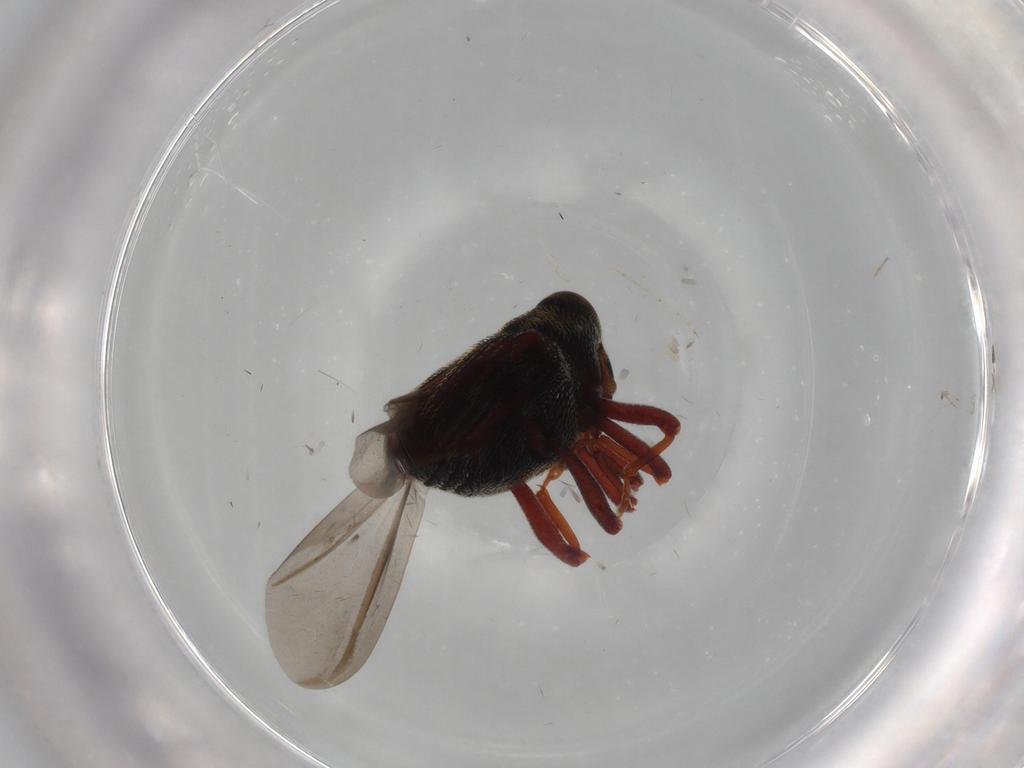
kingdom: Animalia
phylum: Arthropoda
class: Insecta
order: Coleoptera
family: Curculionidae
